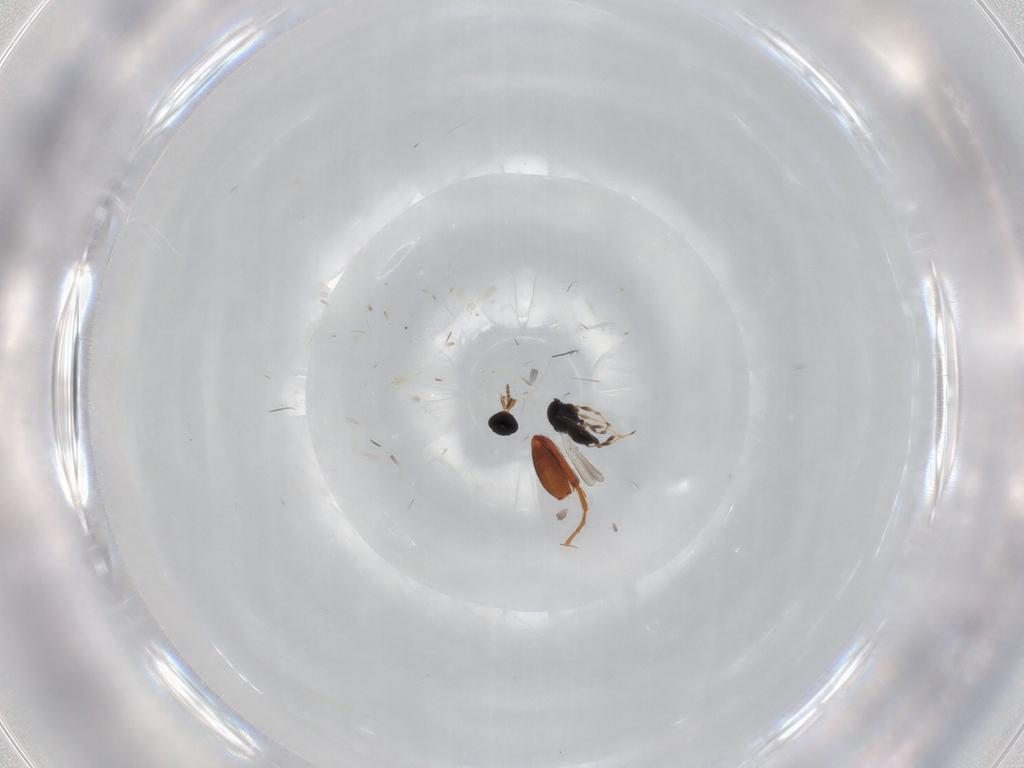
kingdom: Animalia
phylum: Arthropoda
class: Insecta
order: Hymenoptera
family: Platygastridae
